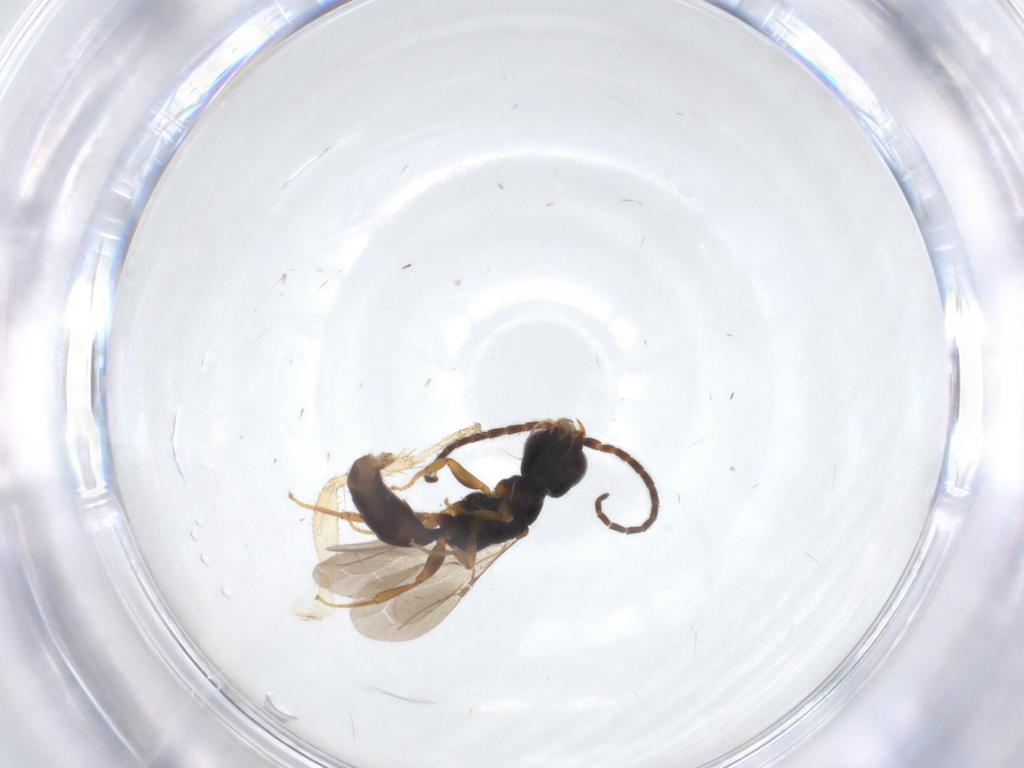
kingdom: Animalia
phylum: Arthropoda
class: Insecta
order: Hymenoptera
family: Bethylidae
